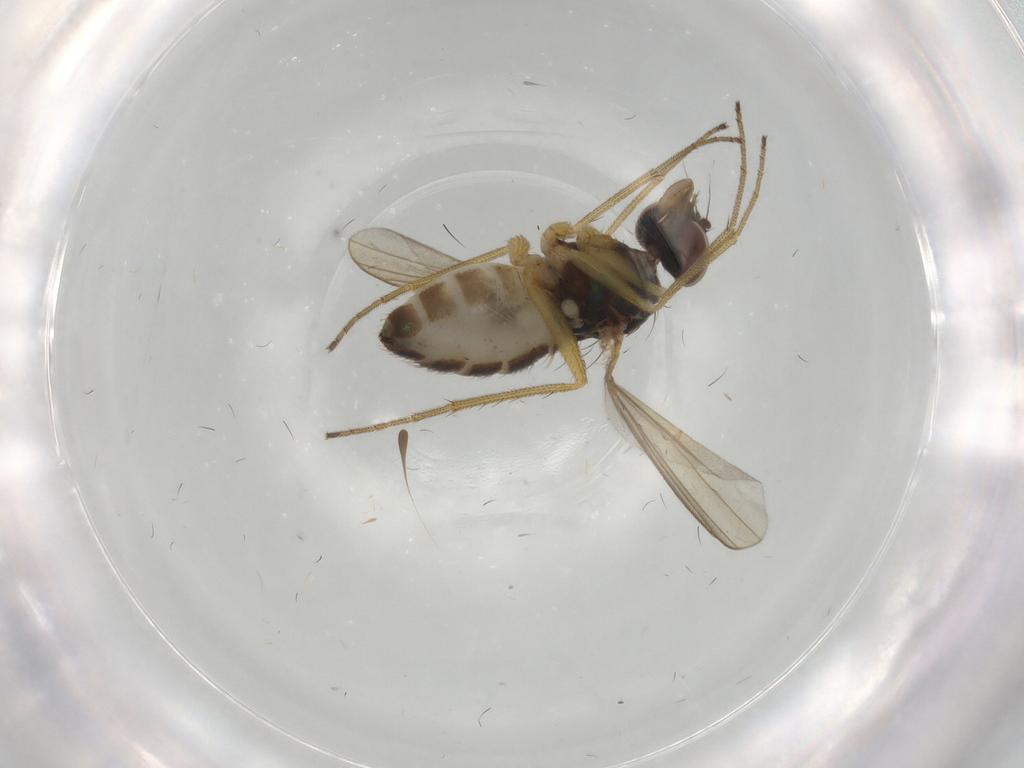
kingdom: Animalia
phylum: Arthropoda
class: Insecta
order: Diptera
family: Dolichopodidae
